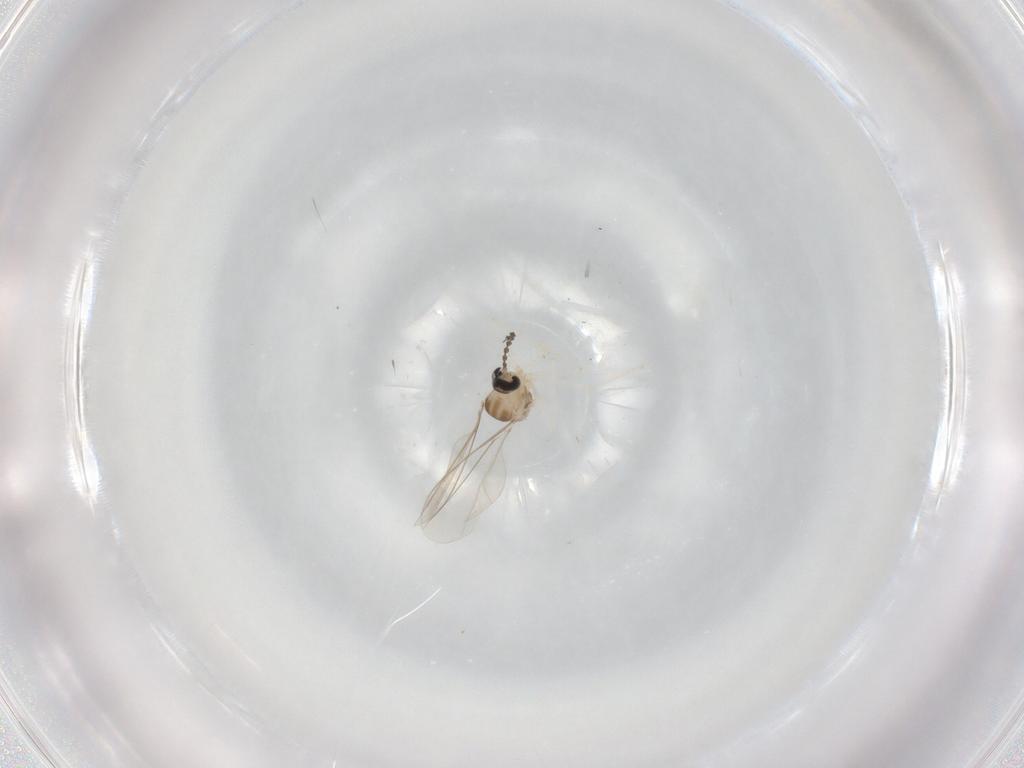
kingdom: Animalia
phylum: Arthropoda
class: Insecta
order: Diptera
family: Cecidomyiidae
